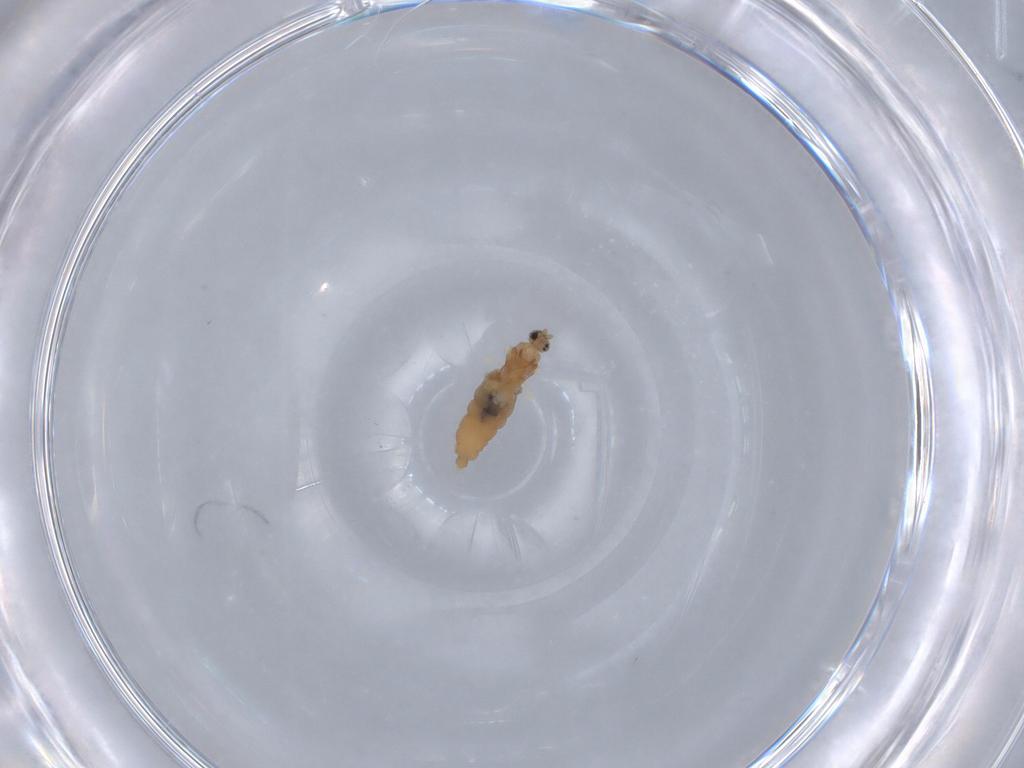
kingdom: Animalia
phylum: Arthropoda
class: Insecta
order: Diptera
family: Cecidomyiidae
